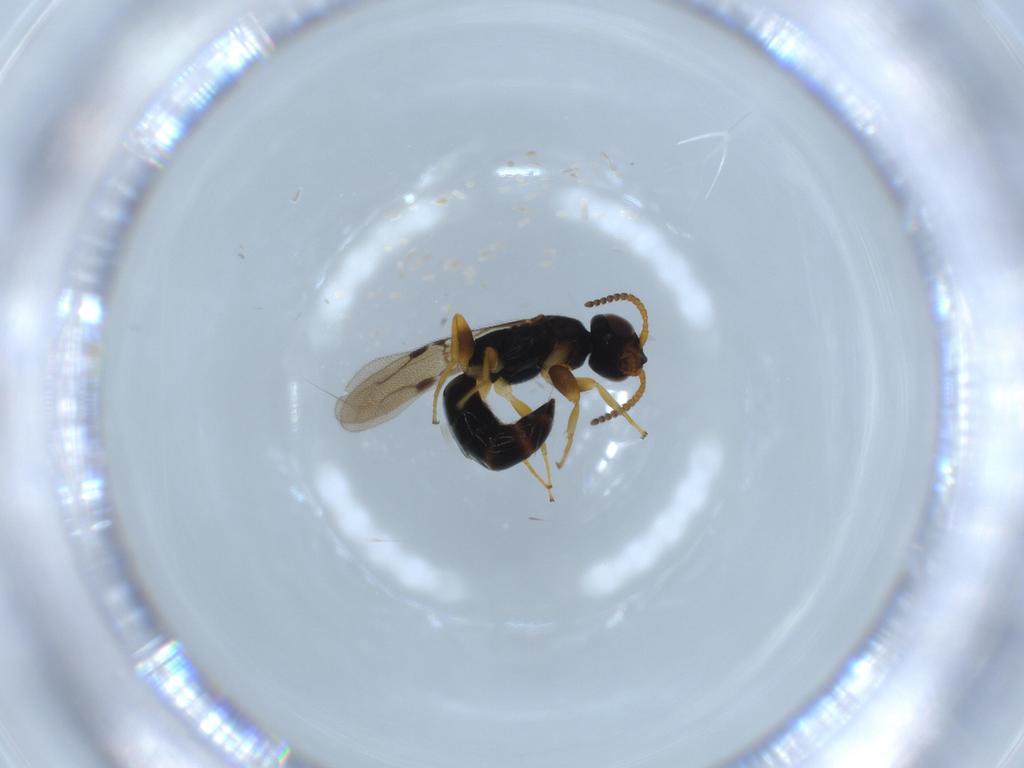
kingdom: Animalia
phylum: Arthropoda
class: Insecta
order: Hymenoptera
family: Bethylidae
